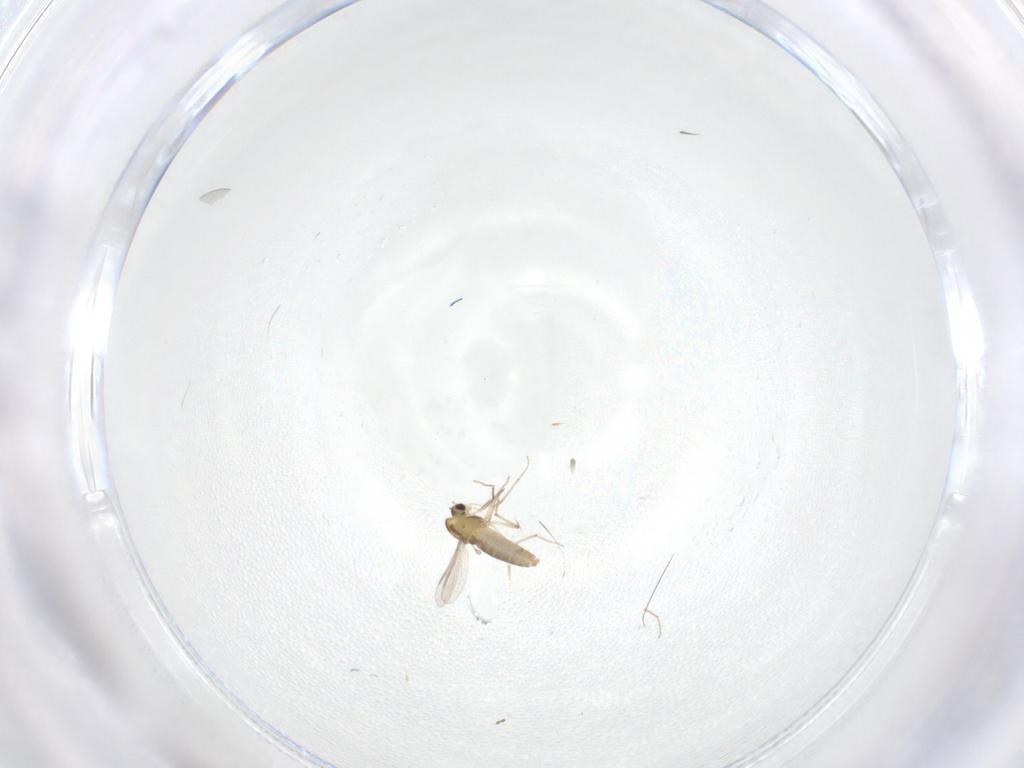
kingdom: Animalia
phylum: Arthropoda
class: Insecta
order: Diptera
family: Chironomidae
